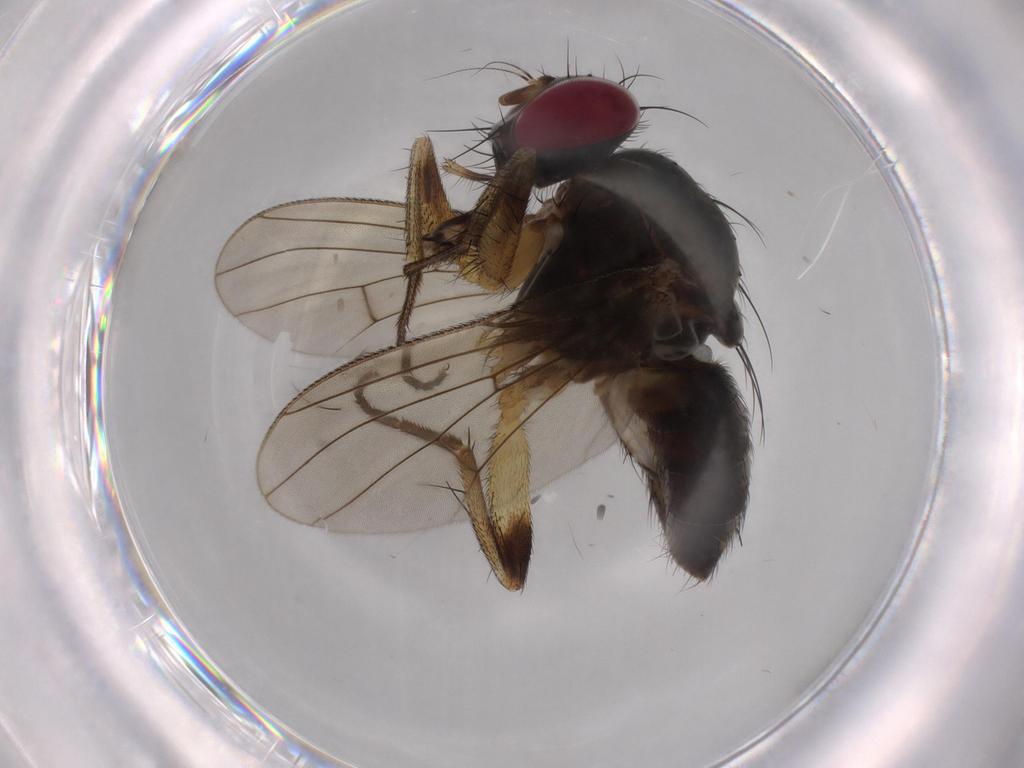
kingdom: Animalia
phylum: Arthropoda
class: Insecta
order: Diptera
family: Muscidae
